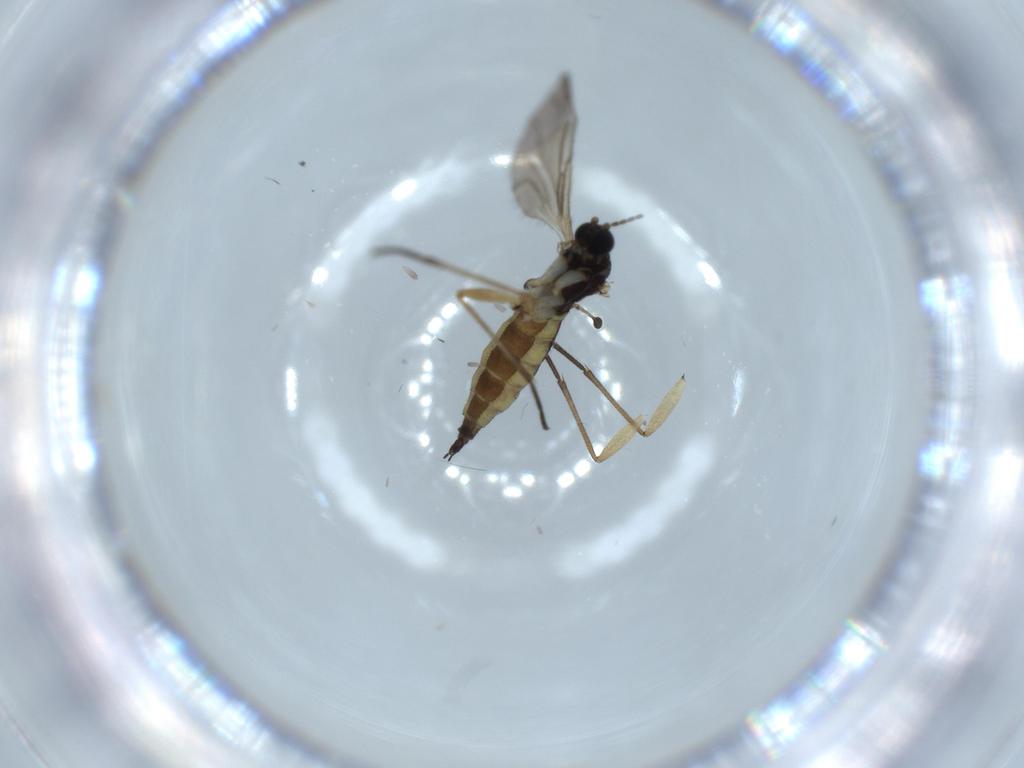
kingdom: Animalia
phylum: Arthropoda
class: Insecta
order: Diptera
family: Sciaridae
